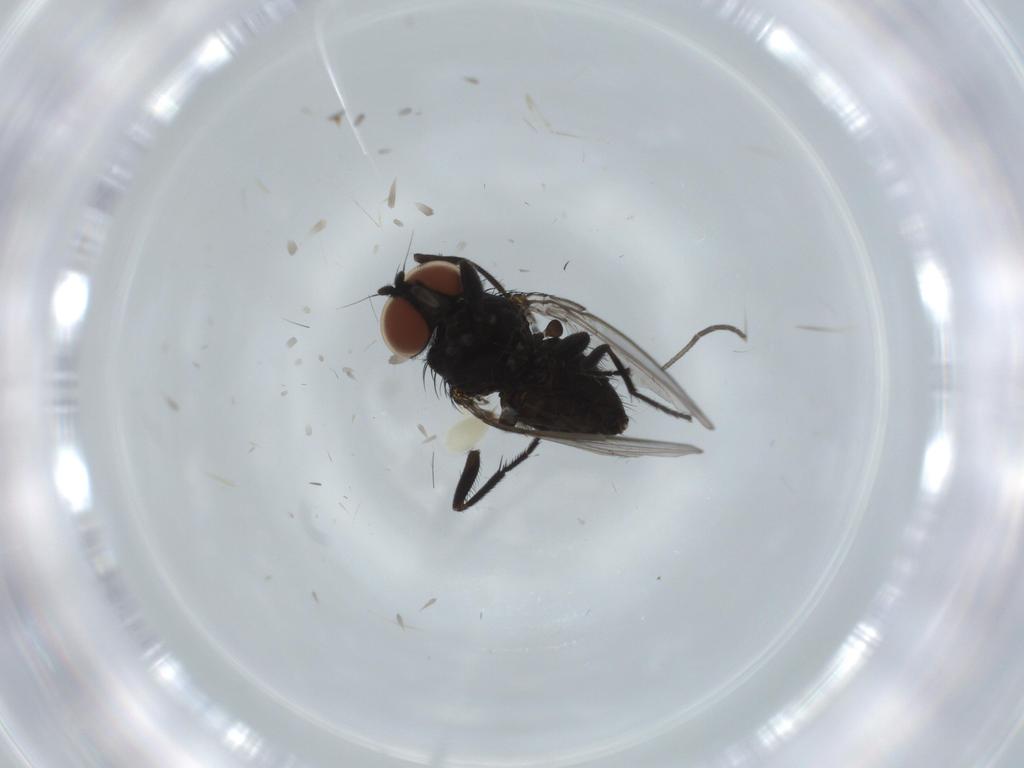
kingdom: Animalia
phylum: Arthropoda
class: Insecta
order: Diptera
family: Milichiidae
